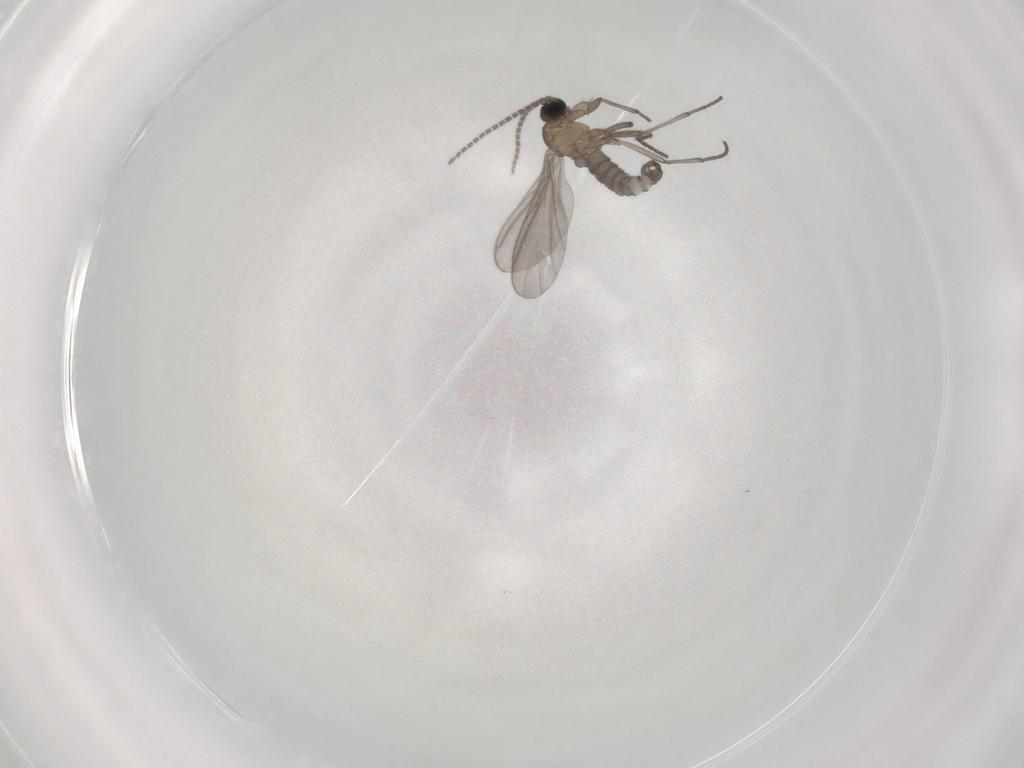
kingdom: Animalia
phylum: Arthropoda
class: Insecta
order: Diptera
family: Sciaridae
